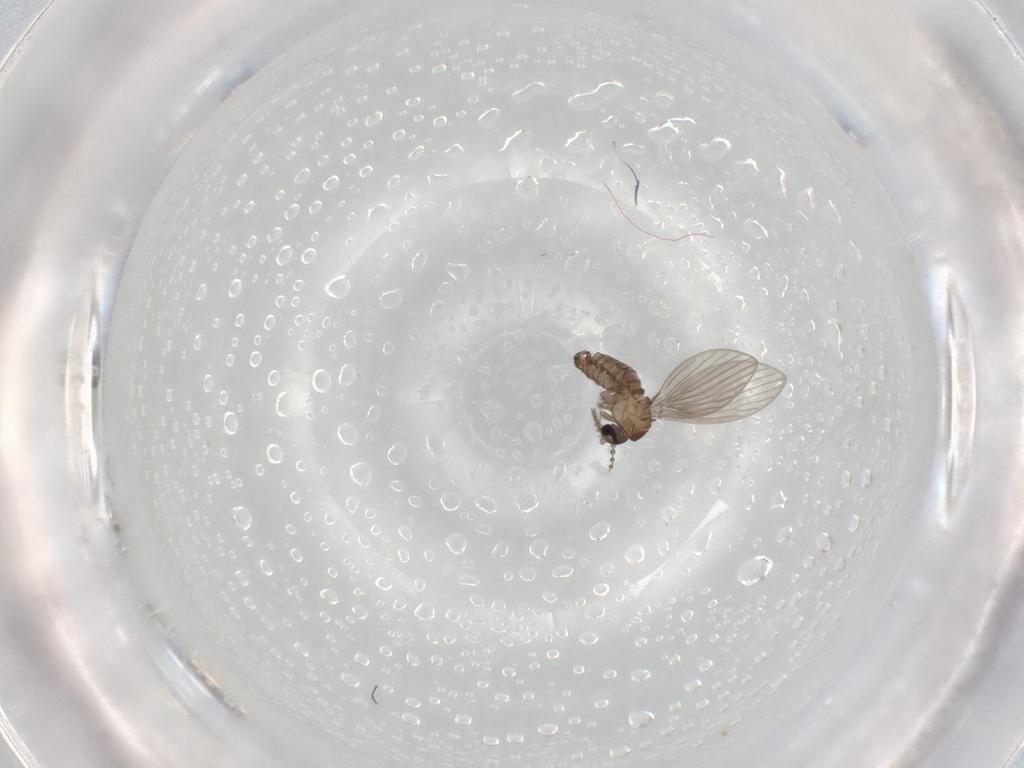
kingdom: Animalia
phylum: Arthropoda
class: Insecta
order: Diptera
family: Psychodidae
